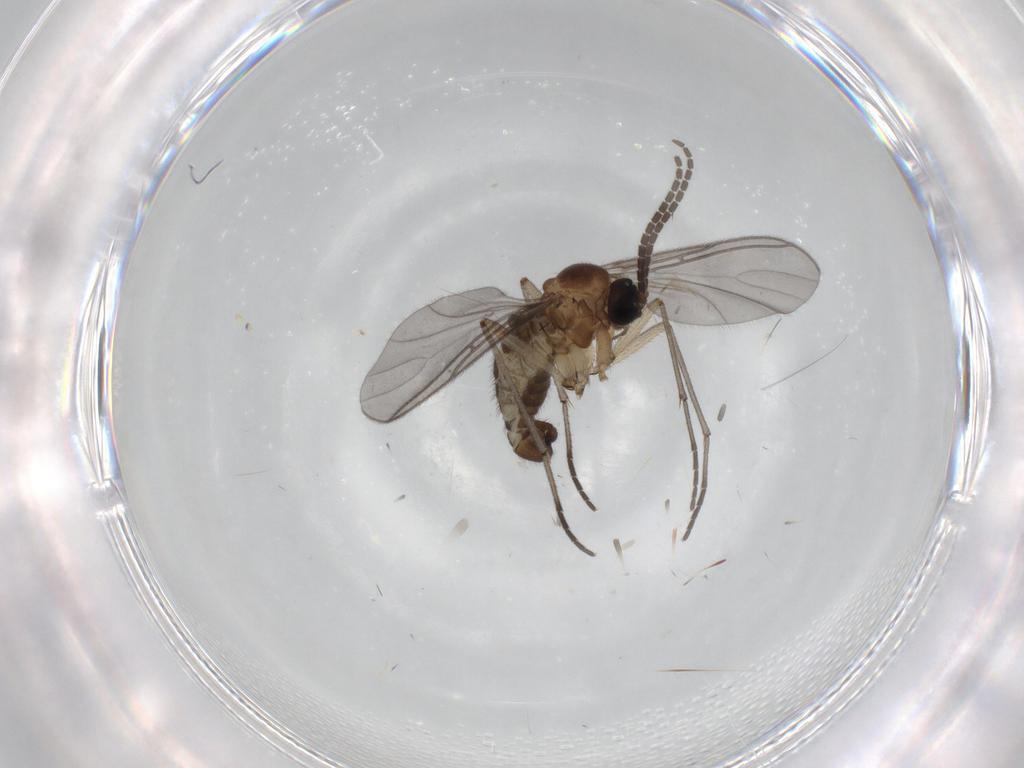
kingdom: Animalia
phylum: Arthropoda
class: Insecta
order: Diptera
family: Sciaridae
